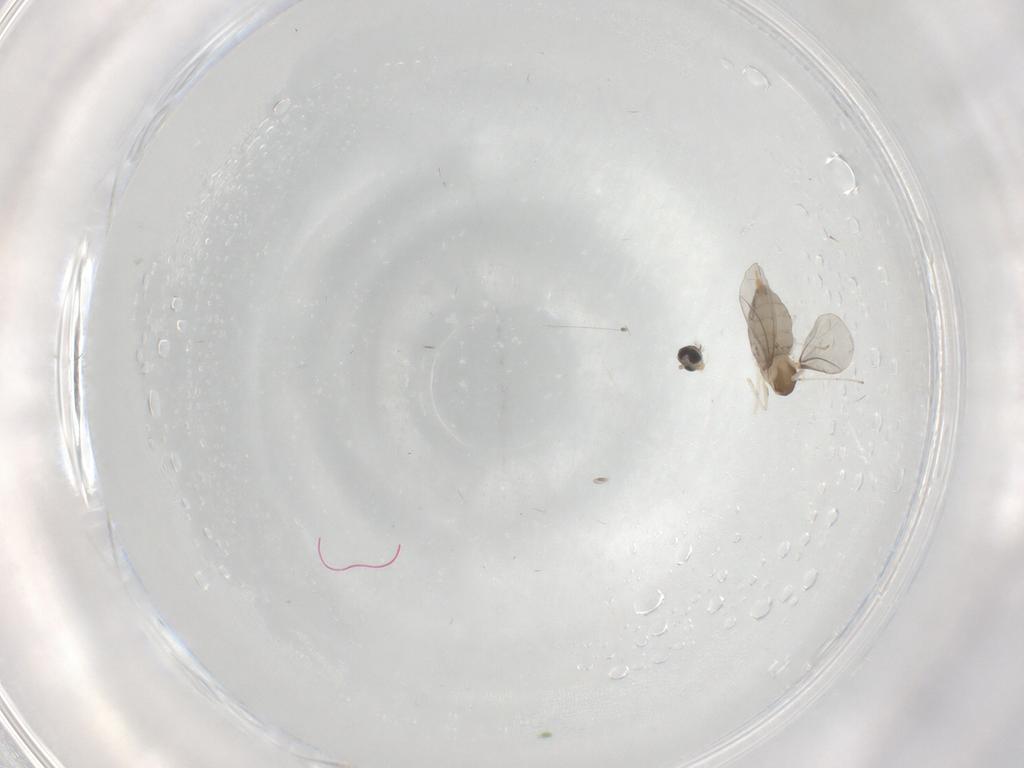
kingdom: Animalia
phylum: Arthropoda
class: Insecta
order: Diptera
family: Cecidomyiidae
